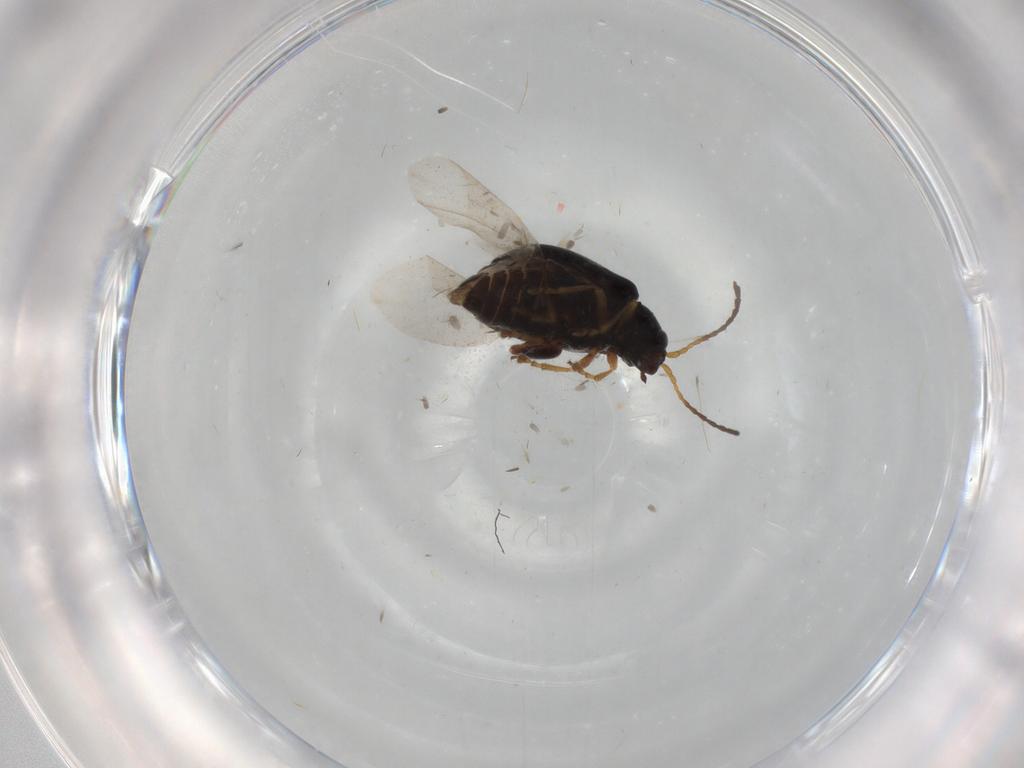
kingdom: Animalia
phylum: Arthropoda
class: Insecta
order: Coleoptera
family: Chrysomelidae
